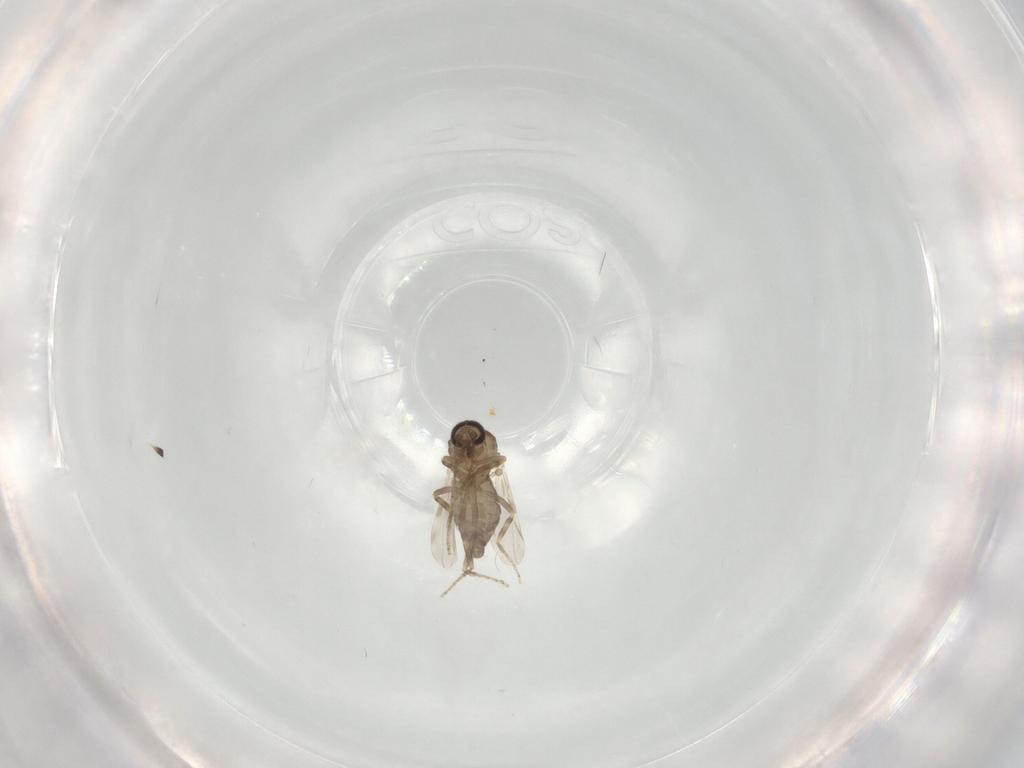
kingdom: Animalia
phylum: Arthropoda
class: Insecta
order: Diptera
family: Ceratopogonidae
